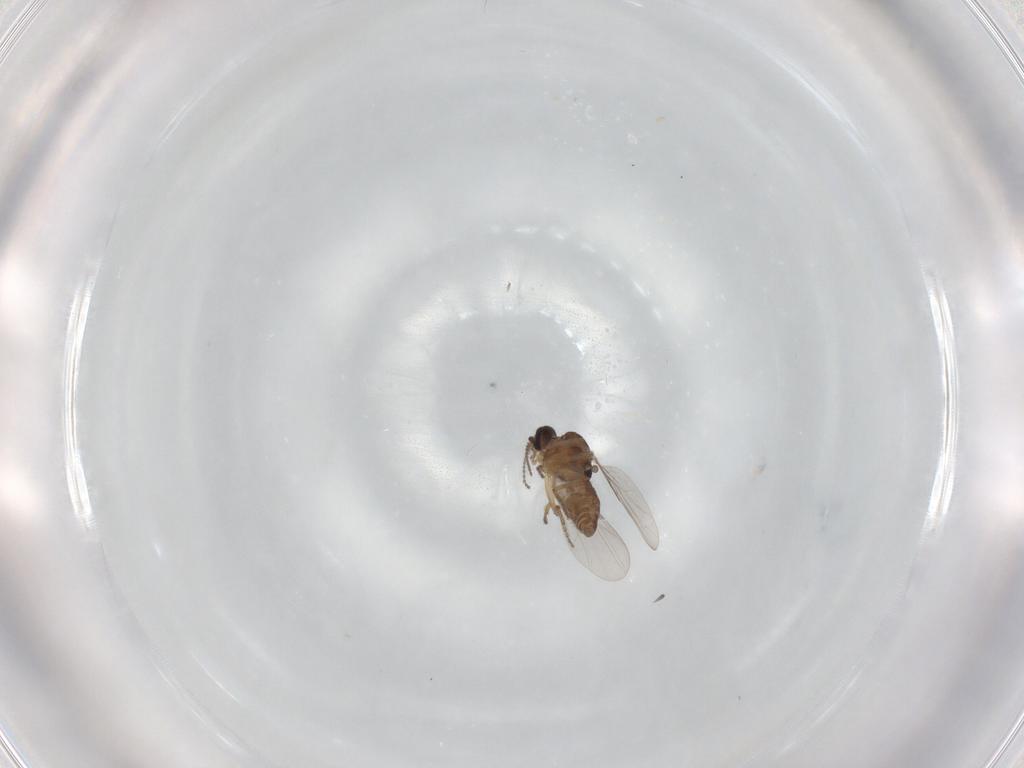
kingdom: Animalia
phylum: Arthropoda
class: Insecta
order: Diptera
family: Ceratopogonidae
